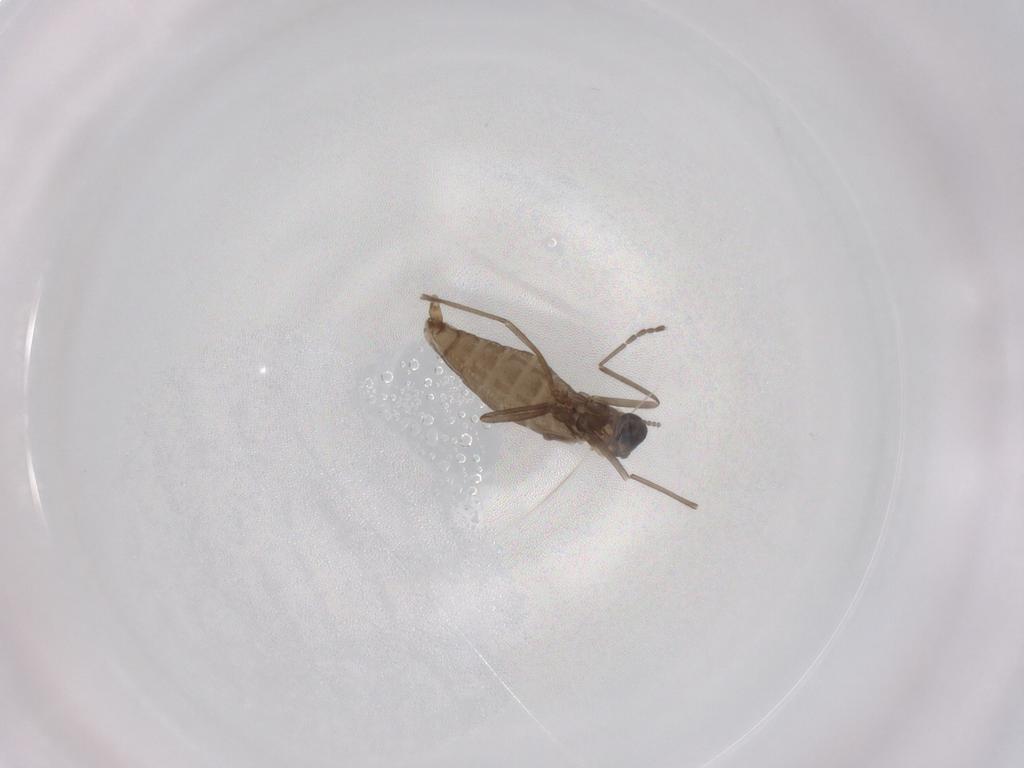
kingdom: Animalia
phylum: Arthropoda
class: Insecta
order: Diptera
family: Cecidomyiidae
